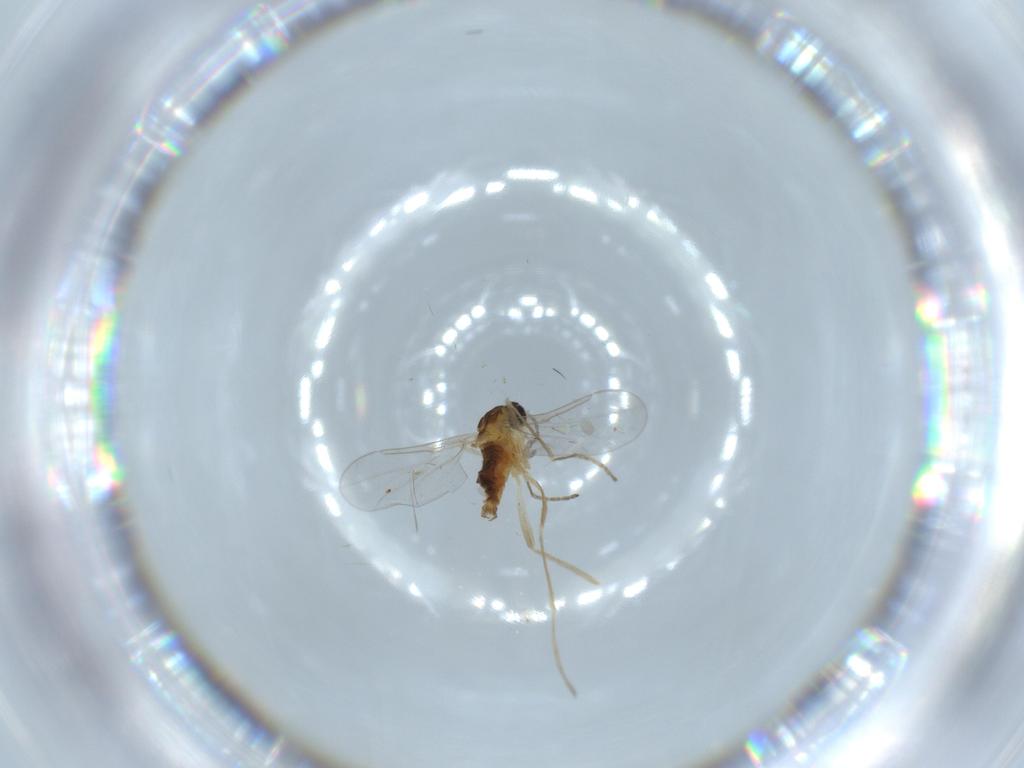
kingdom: Animalia
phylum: Arthropoda
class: Insecta
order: Diptera
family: Cecidomyiidae
